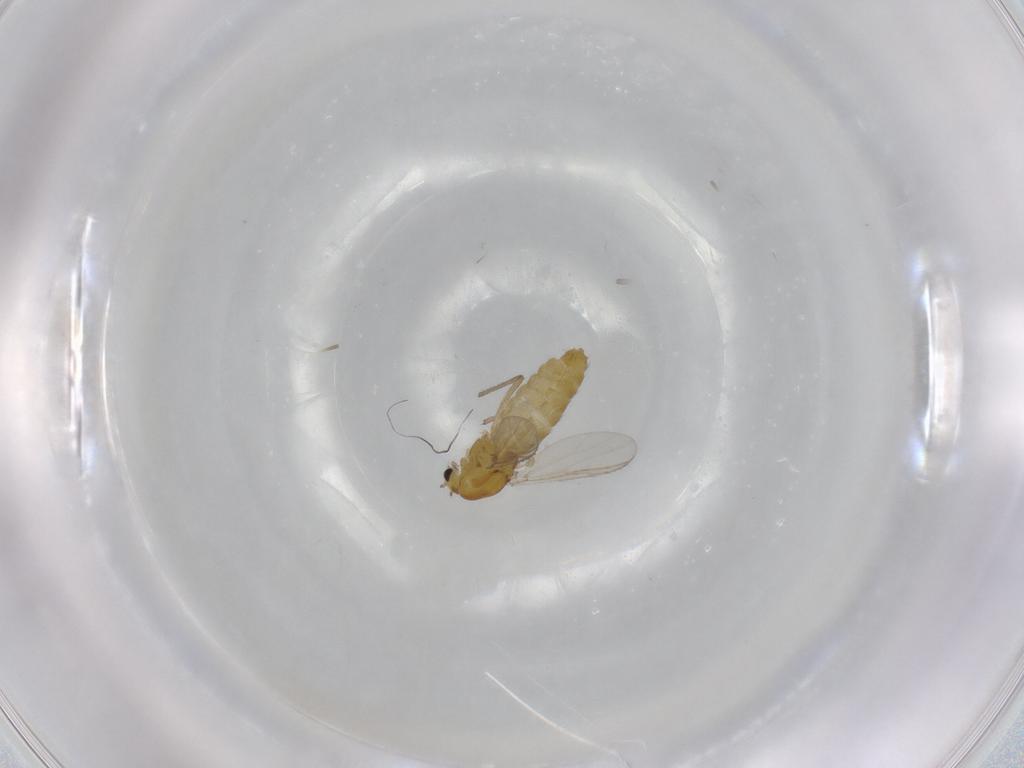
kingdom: Animalia
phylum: Arthropoda
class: Insecta
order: Diptera
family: Chironomidae
